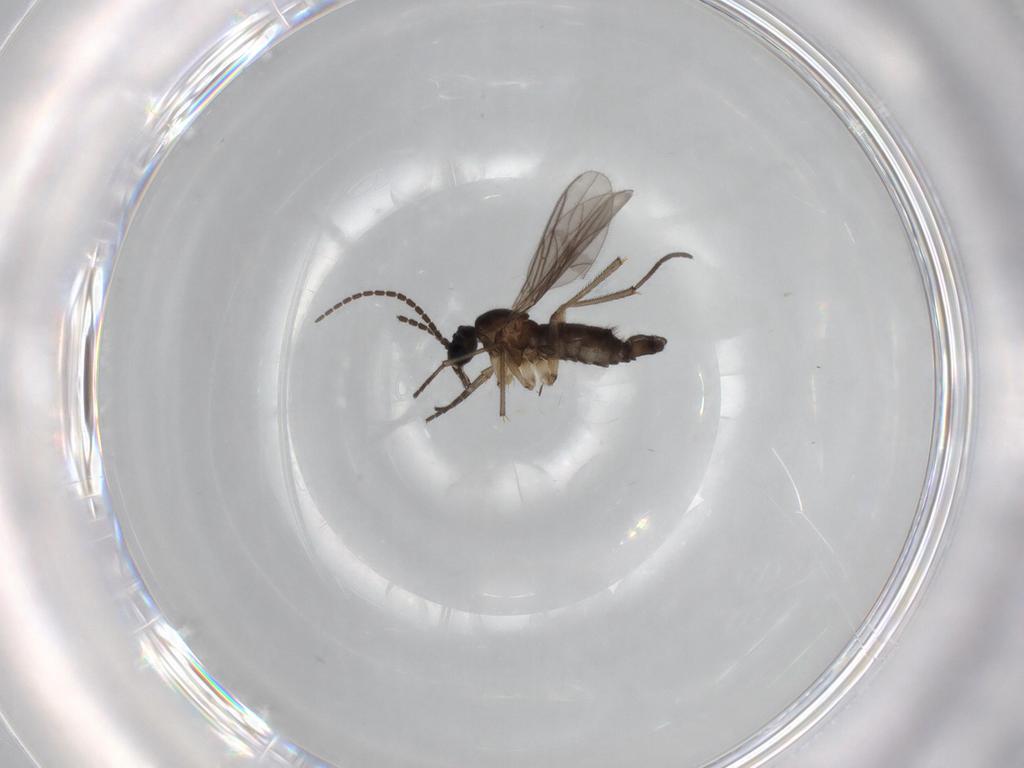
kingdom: Animalia
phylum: Arthropoda
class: Insecta
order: Diptera
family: Sciaridae
